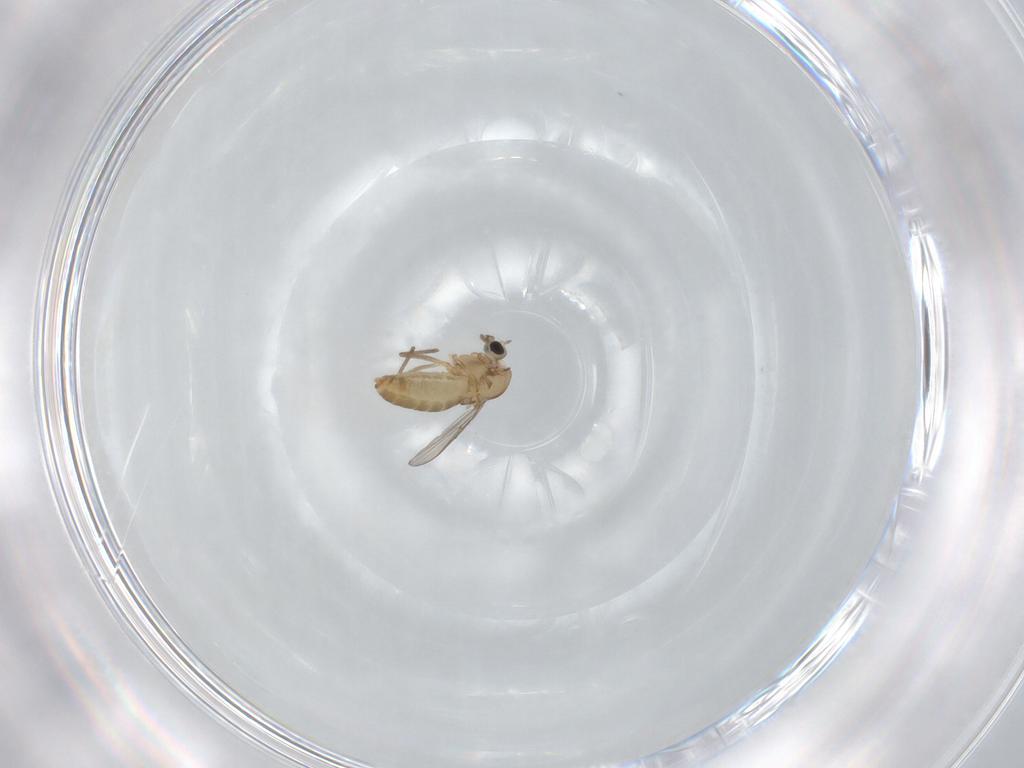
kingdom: Animalia
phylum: Arthropoda
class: Insecta
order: Diptera
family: Chironomidae
